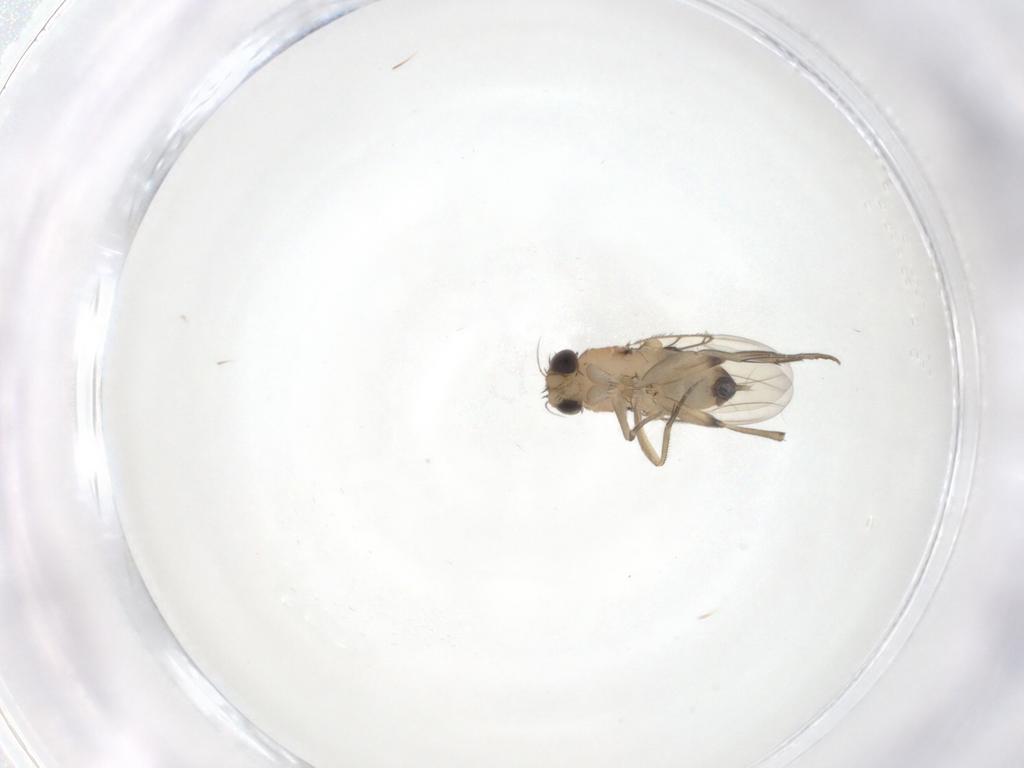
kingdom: Animalia
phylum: Arthropoda
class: Insecta
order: Diptera
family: Phoridae
